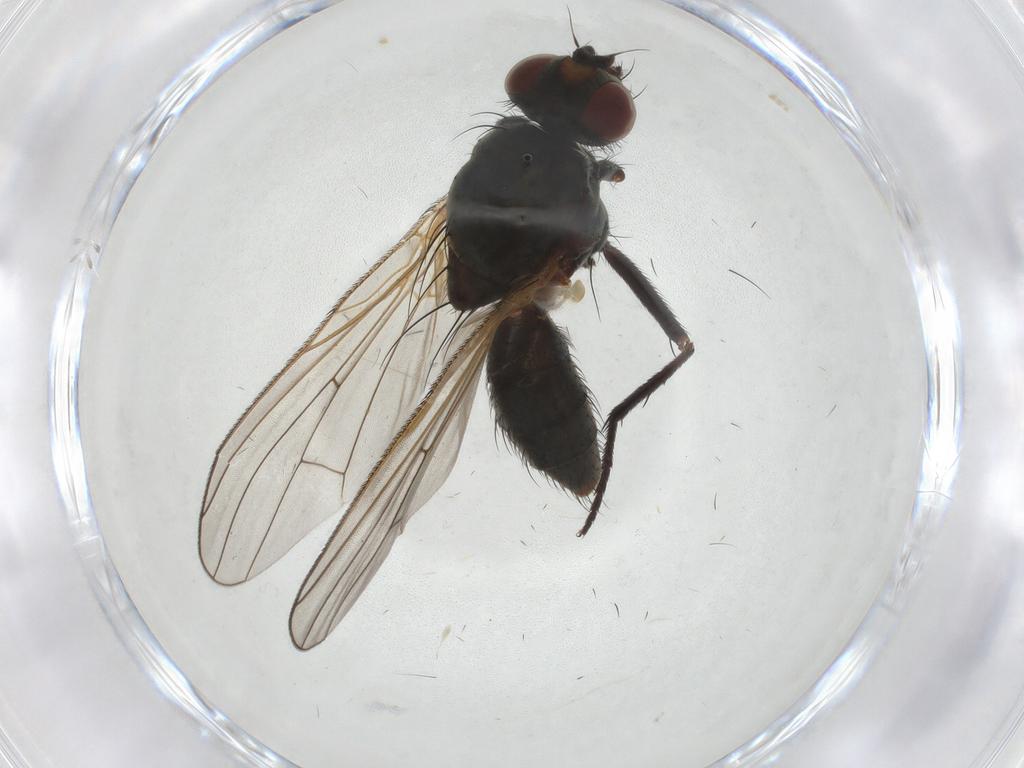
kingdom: Animalia
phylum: Arthropoda
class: Insecta
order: Diptera
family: Anthomyiidae
